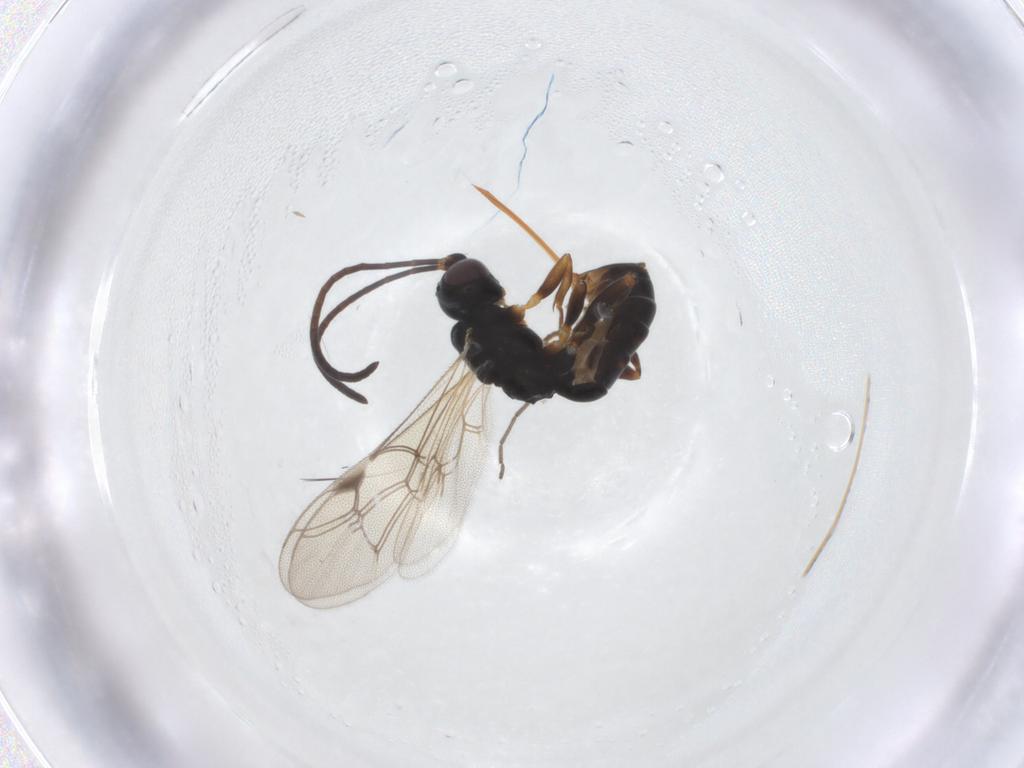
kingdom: Animalia
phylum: Arthropoda
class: Insecta
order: Hymenoptera
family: Ichneumonidae
